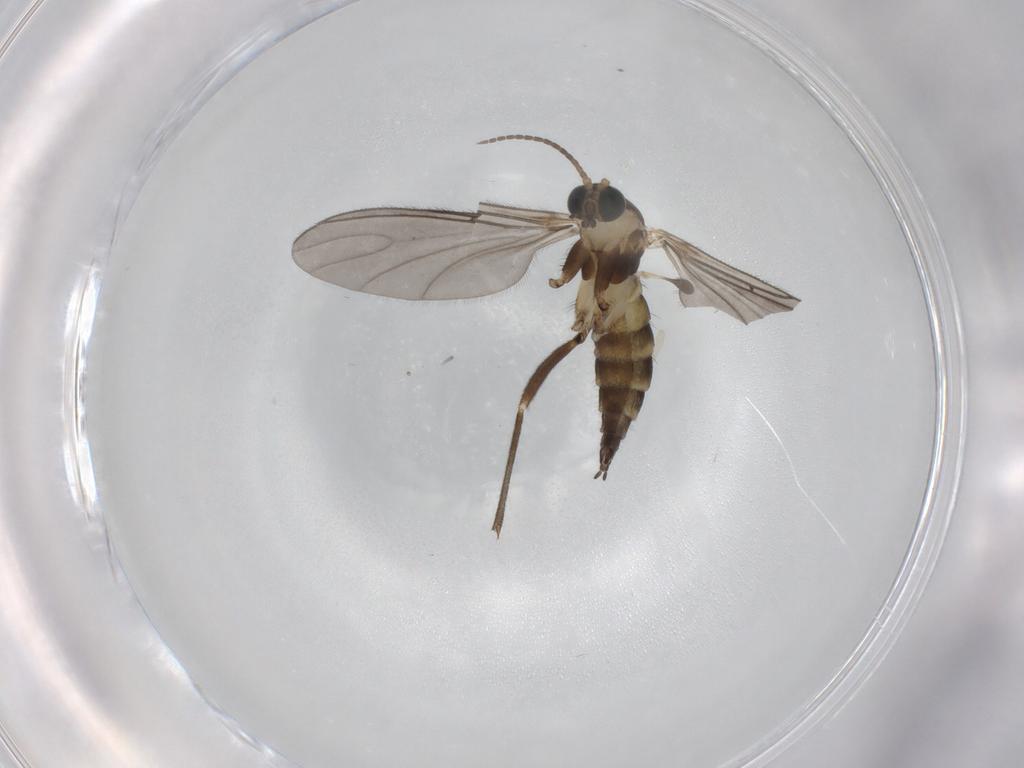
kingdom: Animalia
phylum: Arthropoda
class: Insecta
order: Diptera
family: Sciaridae
